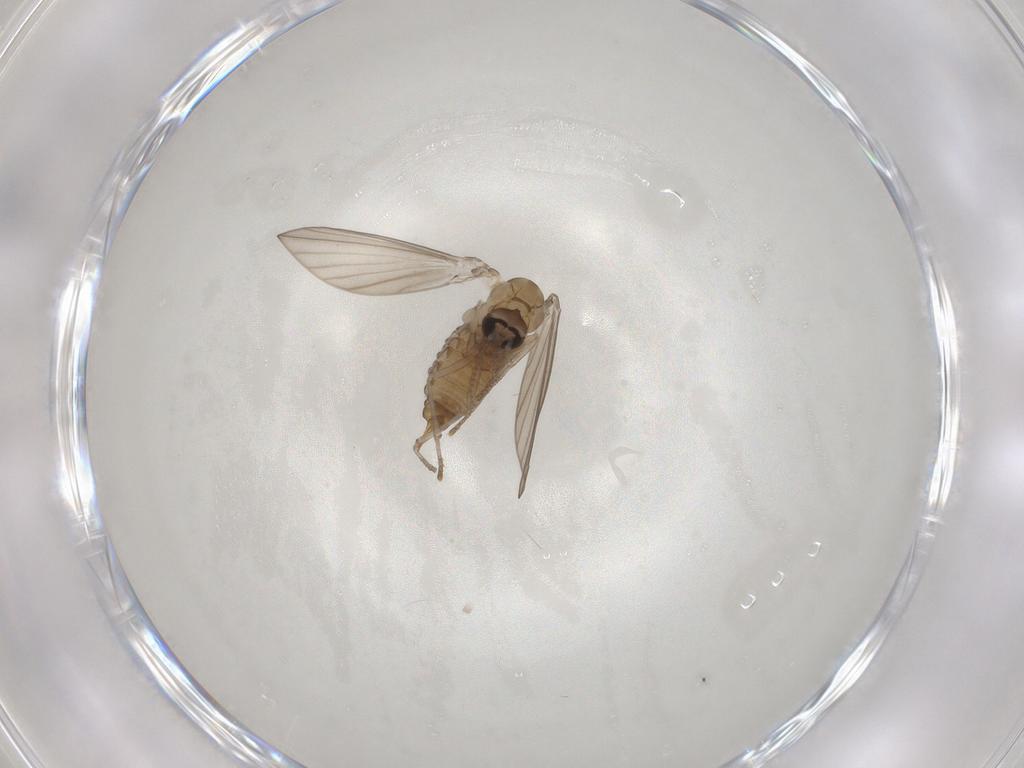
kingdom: Animalia
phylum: Arthropoda
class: Insecta
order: Diptera
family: Psychodidae
